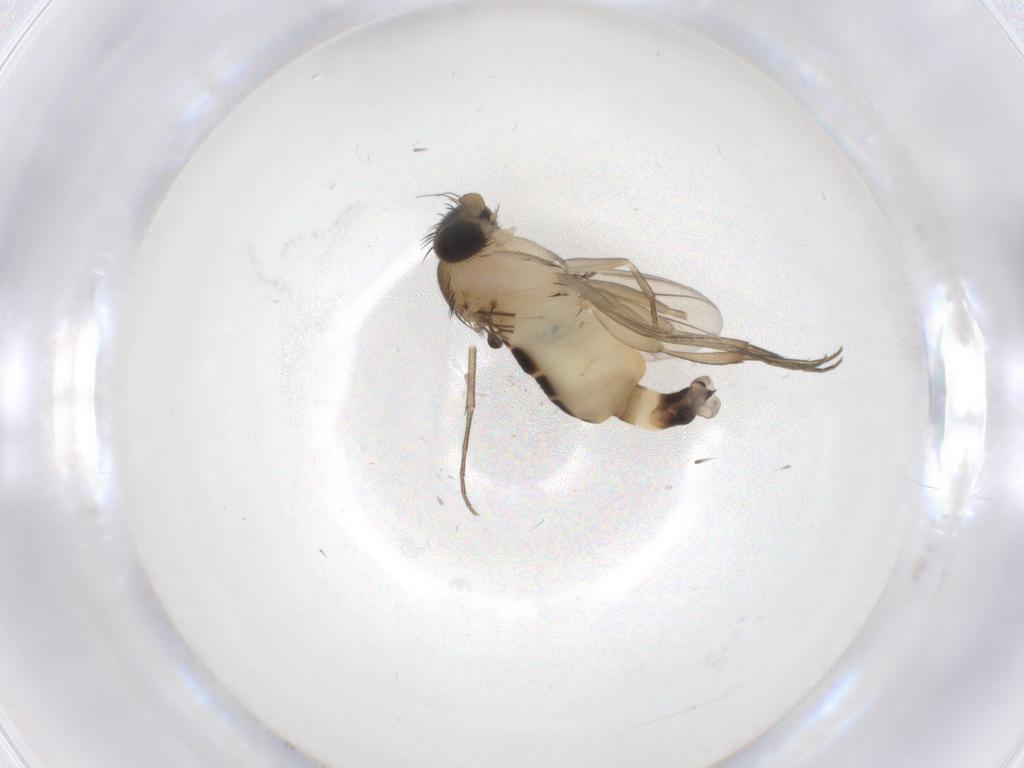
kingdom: Animalia
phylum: Arthropoda
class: Insecta
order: Diptera
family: Phoridae
